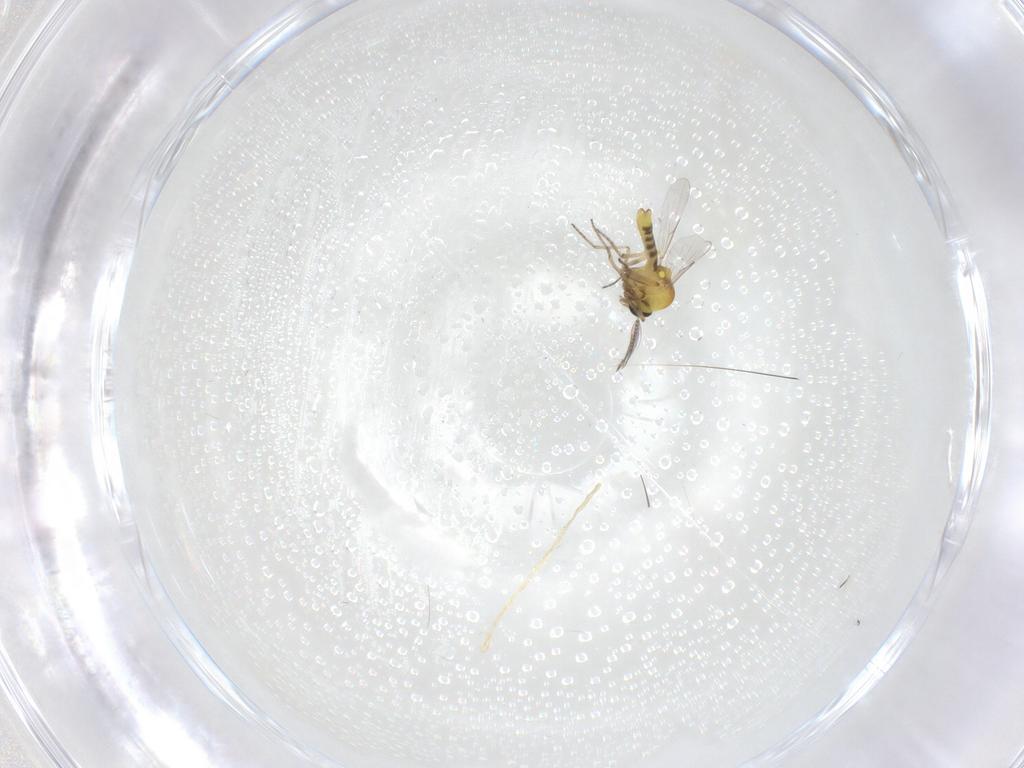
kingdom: Animalia
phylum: Arthropoda
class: Insecta
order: Diptera
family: Ceratopogonidae
